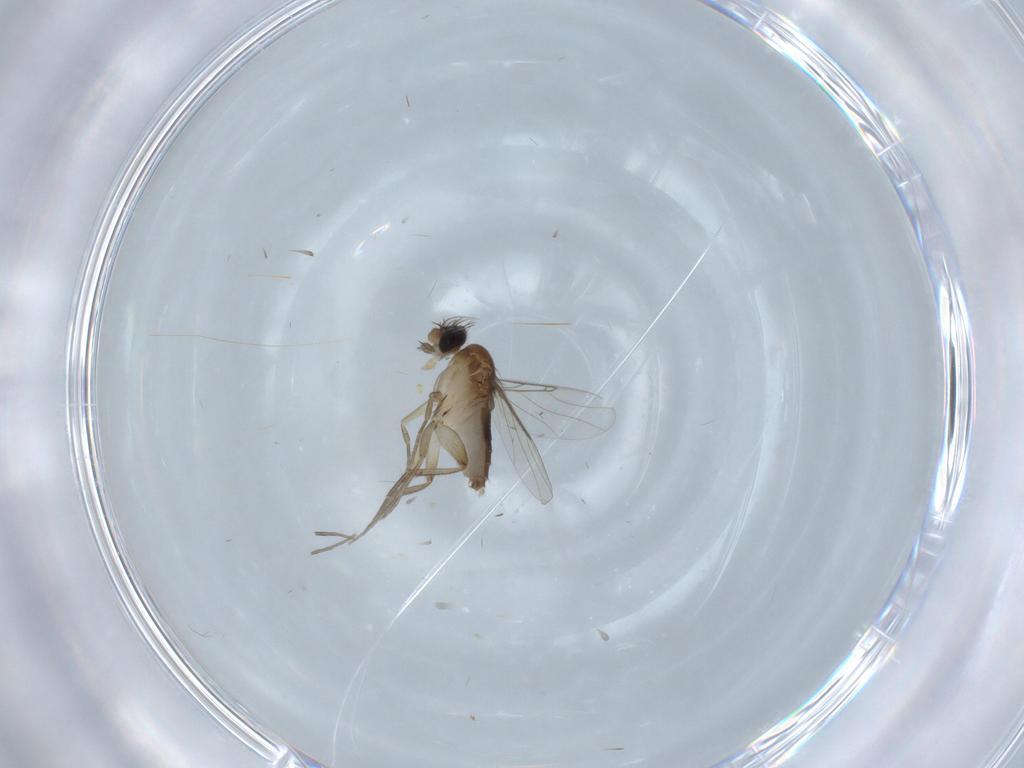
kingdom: Animalia
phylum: Arthropoda
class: Insecta
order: Diptera
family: Phoridae
